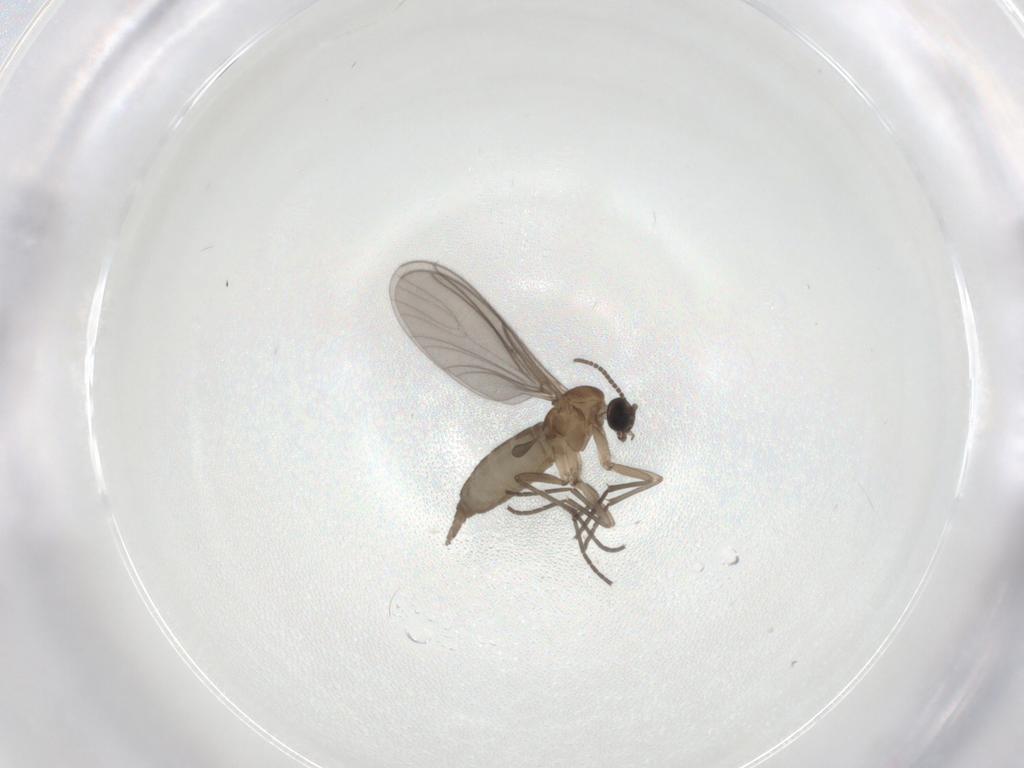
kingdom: Animalia
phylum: Arthropoda
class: Insecta
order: Diptera
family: Sciaridae
